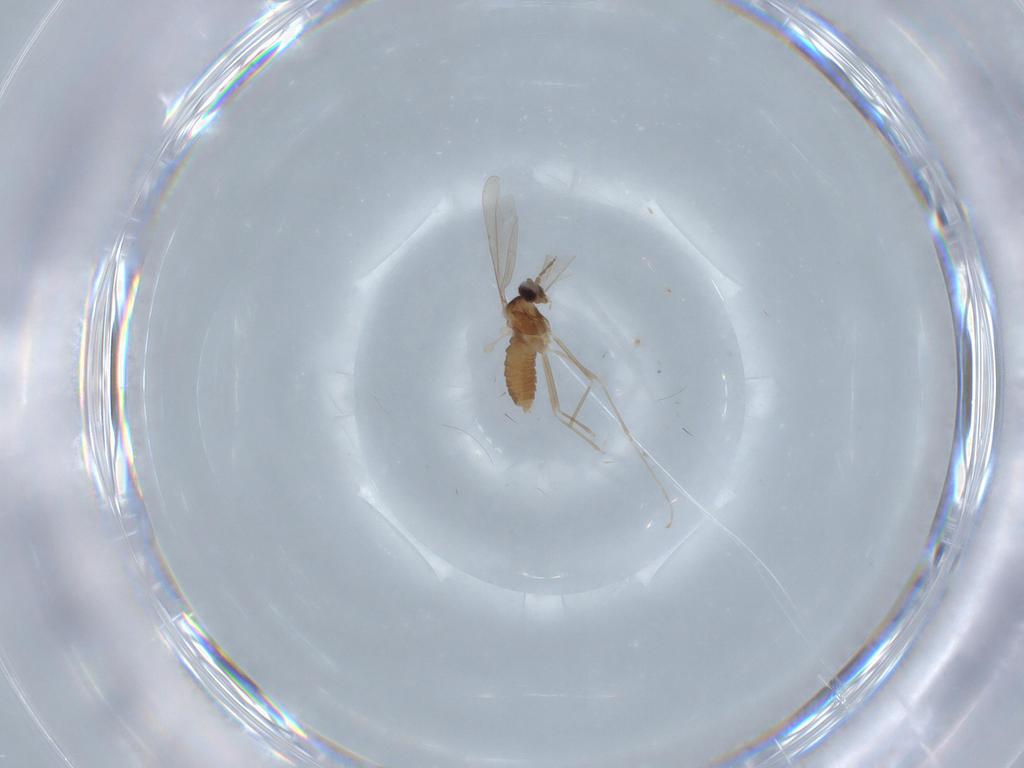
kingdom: Animalia
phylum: Arthropoda
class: Insecta
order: Diptera
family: Cecidomyiidae
